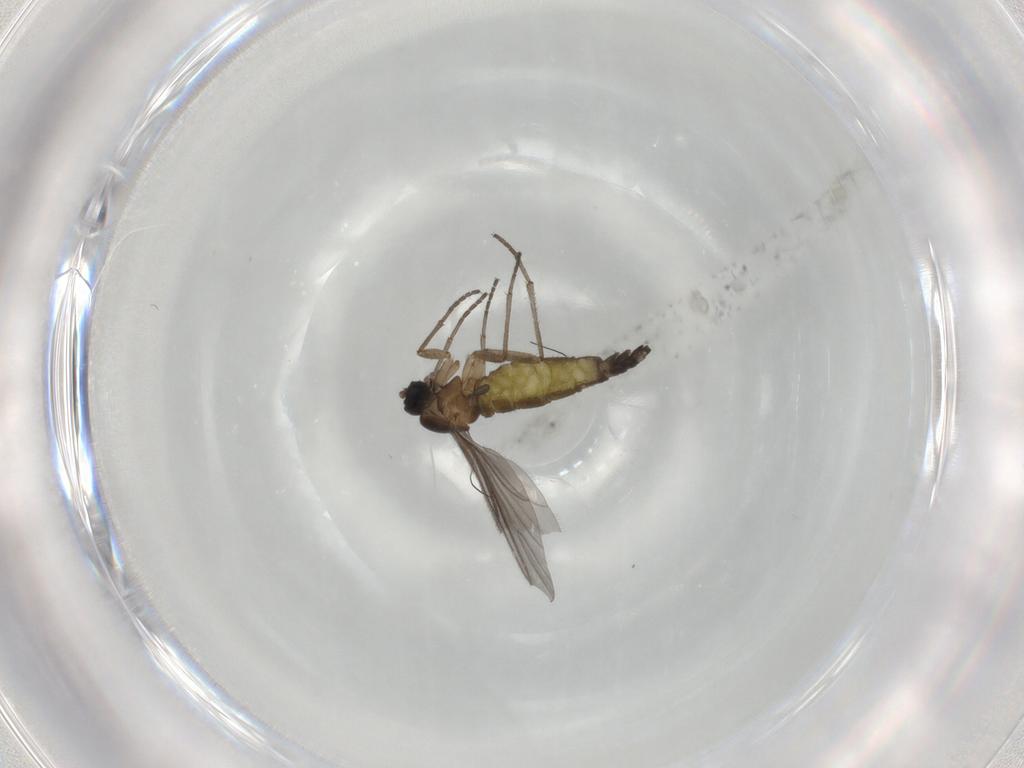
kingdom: Animalia
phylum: Arthropoda
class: Insecta
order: Diptera
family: Sciaridae
